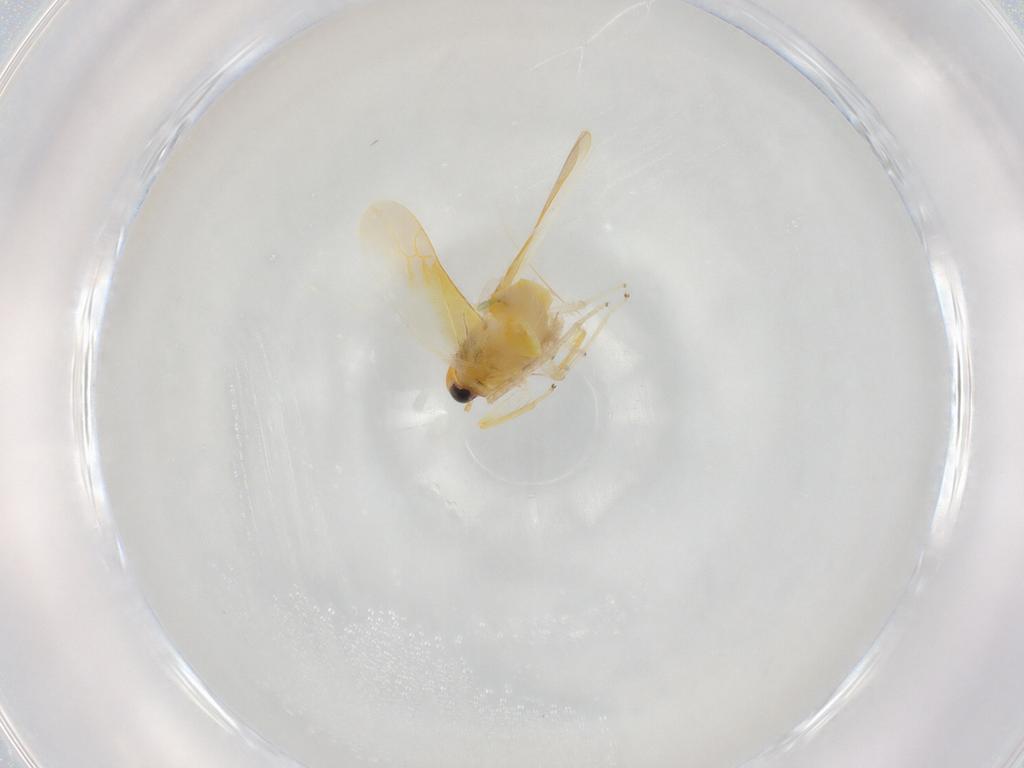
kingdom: Animalia
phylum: Arthropoda
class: Insecta
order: Hemiptera
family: Cicadellidae
